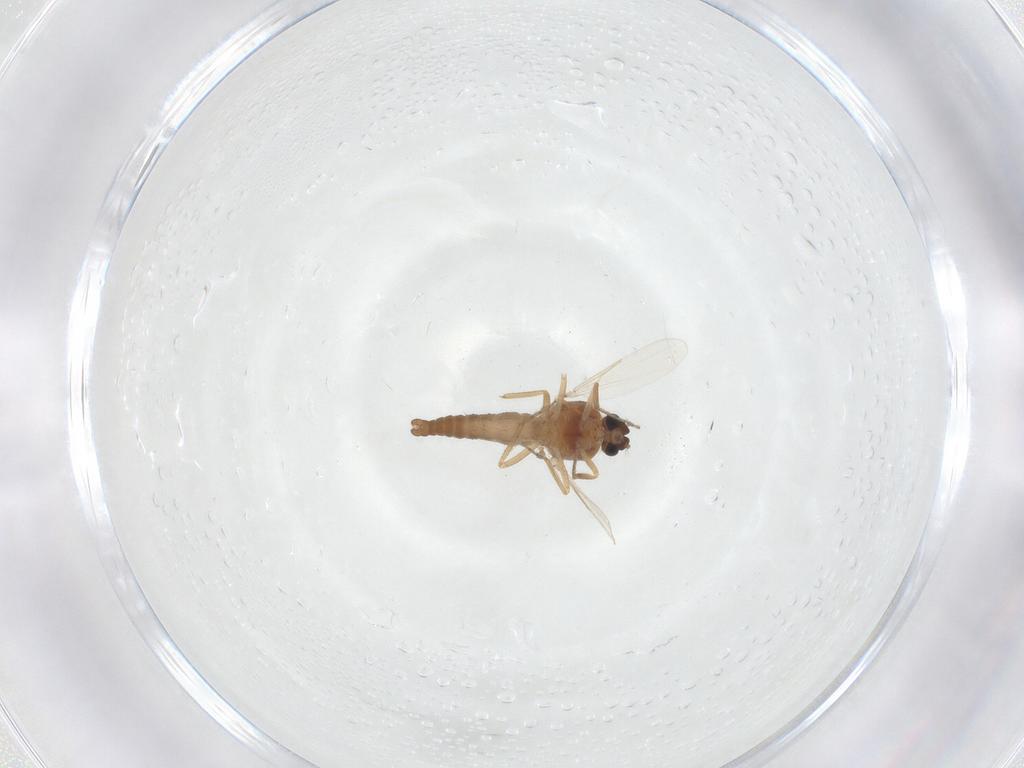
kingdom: Animalia
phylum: Arthropoda
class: Insecta
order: Diptera
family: Ceratopogonidae
